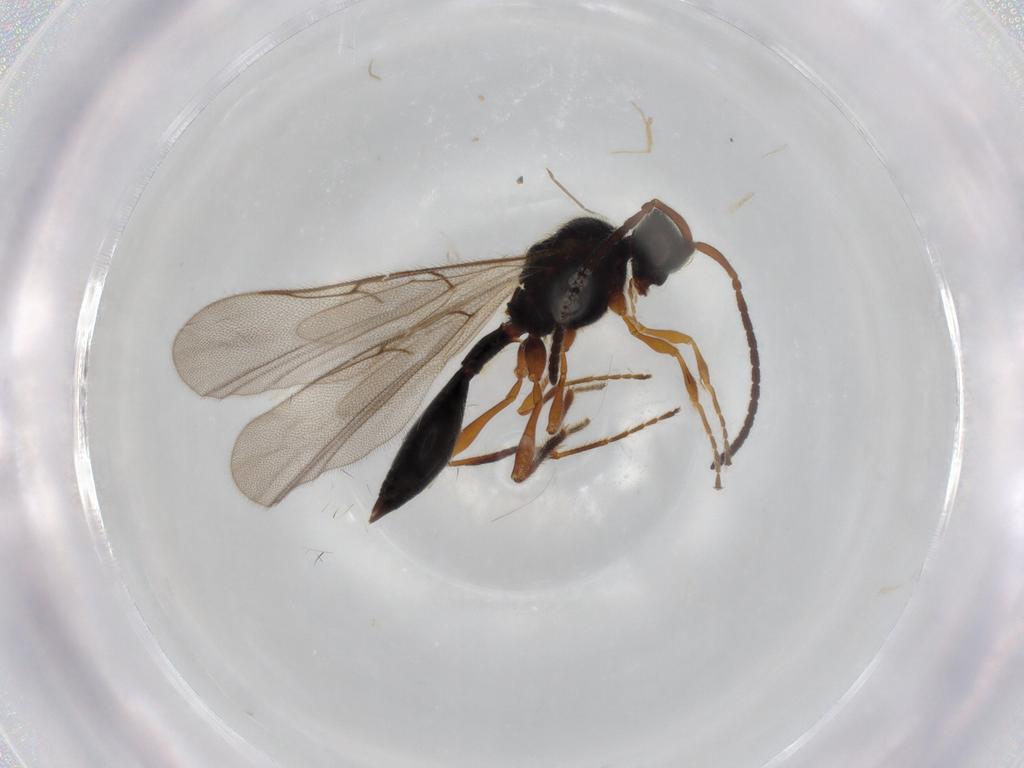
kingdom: Animalia
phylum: Arthropoda
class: Insecta
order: Hymenoptera
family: Diapriidae
